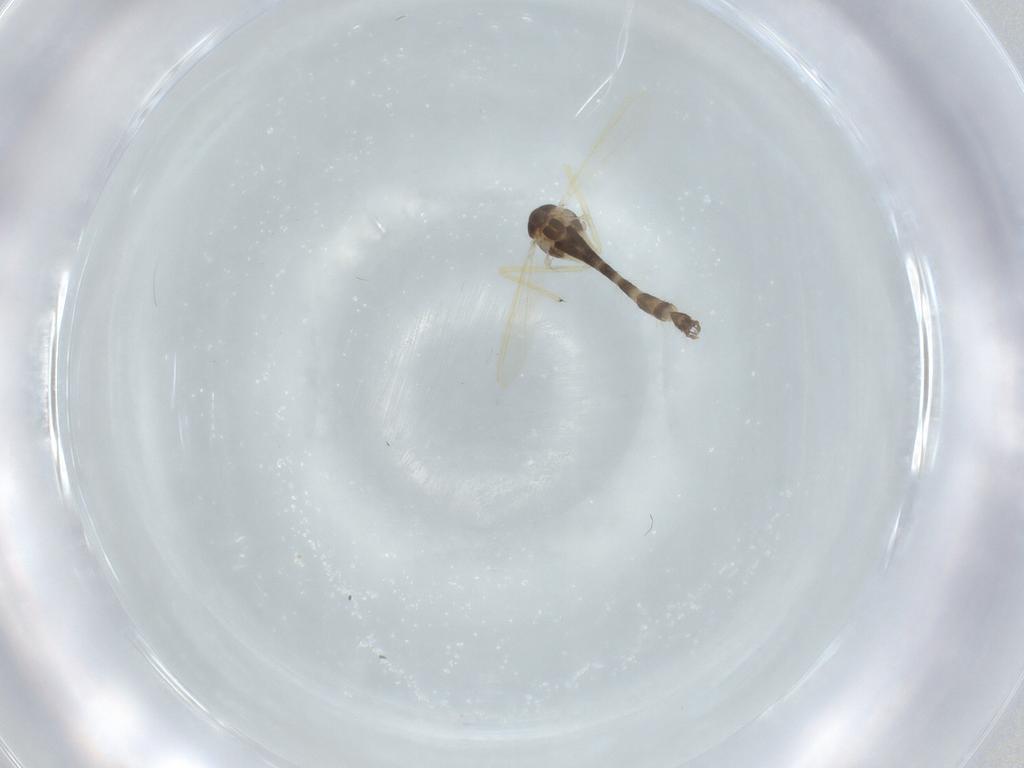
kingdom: Animalia
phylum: Arthropoda
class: Insecta
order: Diptera
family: Chironomidae
